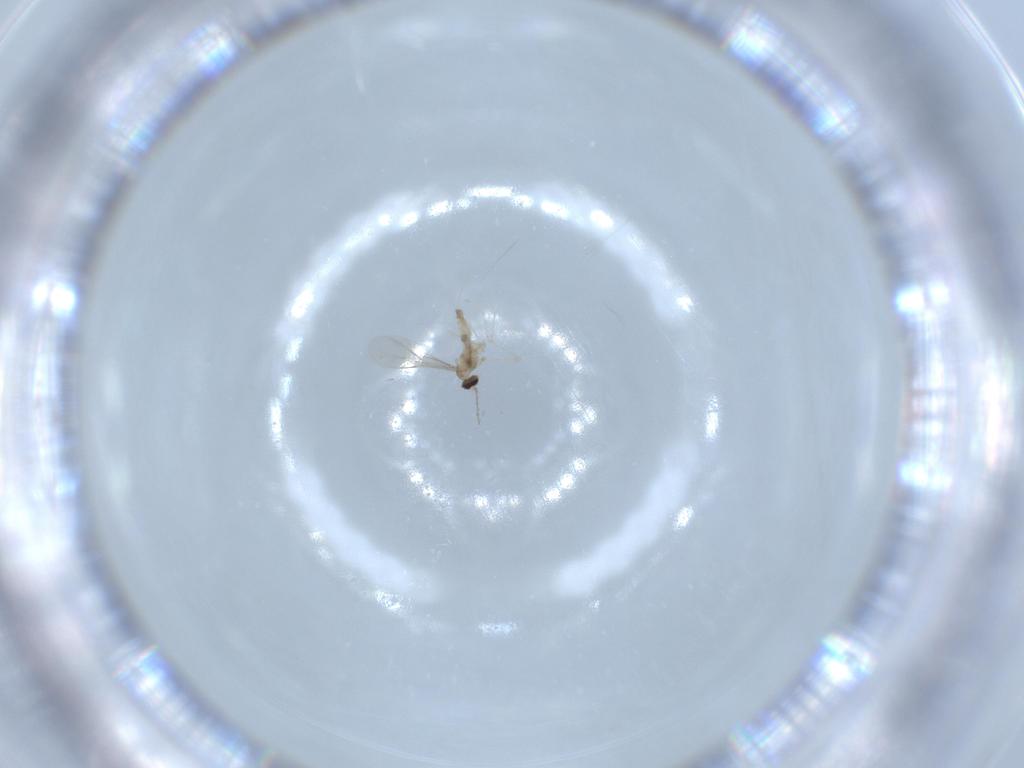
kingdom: Animalia
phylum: Arthropoda
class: Insecta
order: Diptera
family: Cecidomyiidae
